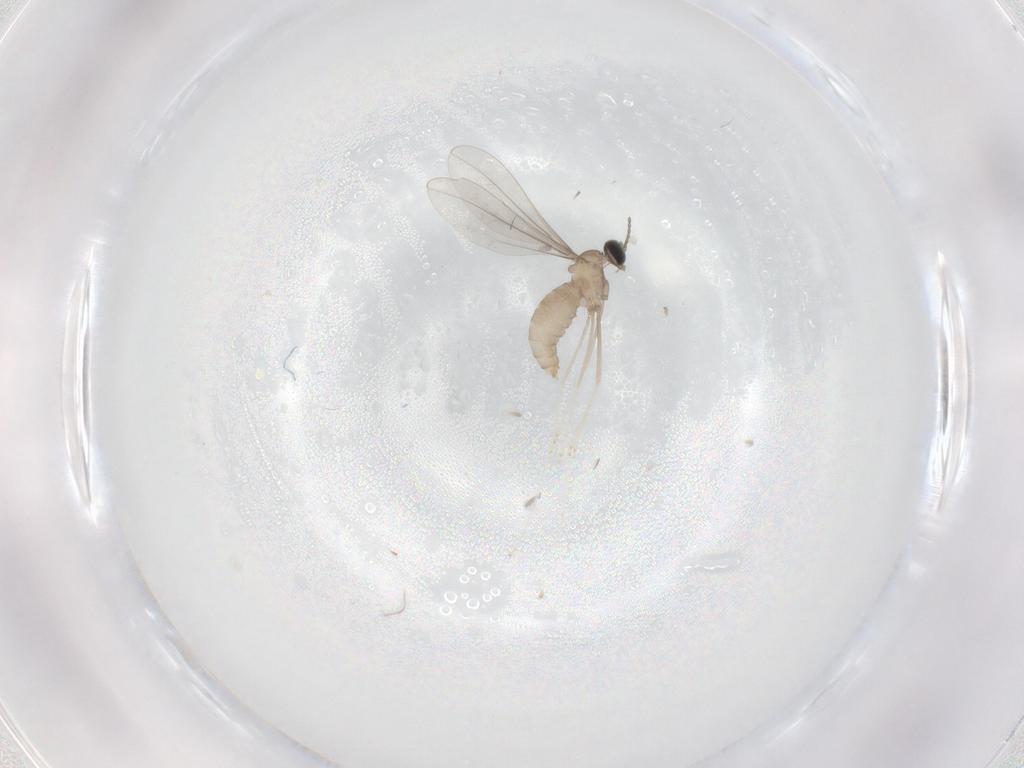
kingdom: Animalia
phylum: Arthropoda
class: Insecta
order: Diptera
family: Cecidomyiidae
